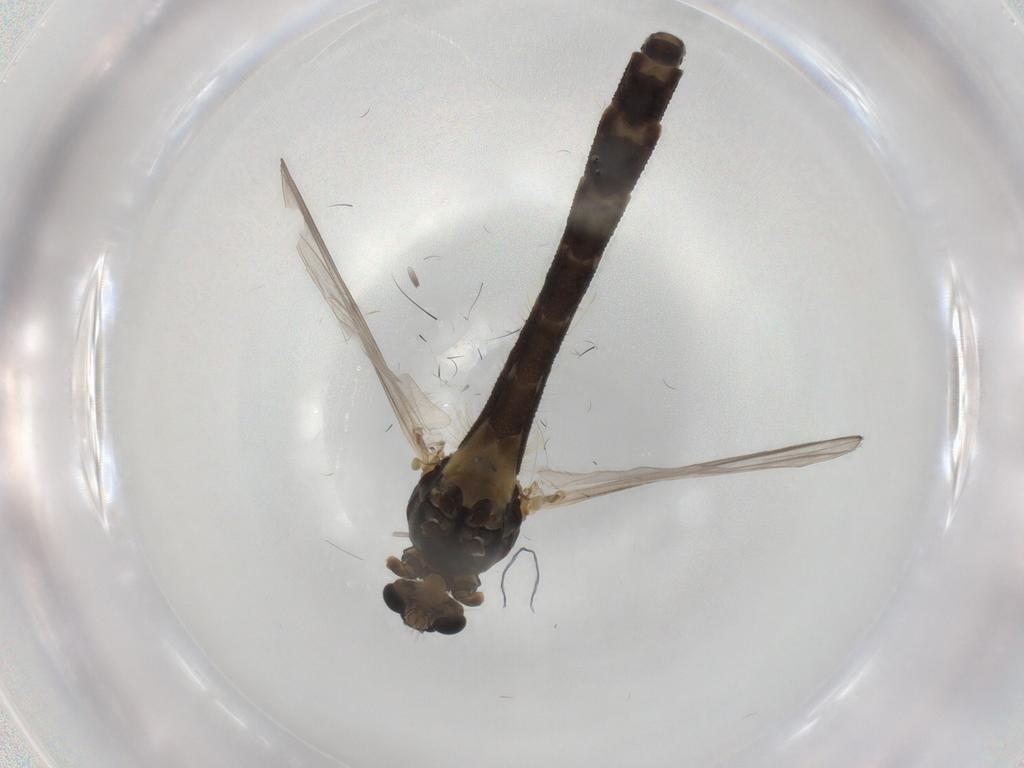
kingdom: Animalia
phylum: Arthropoda
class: Insecta
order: Diptera
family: Chironomidae
